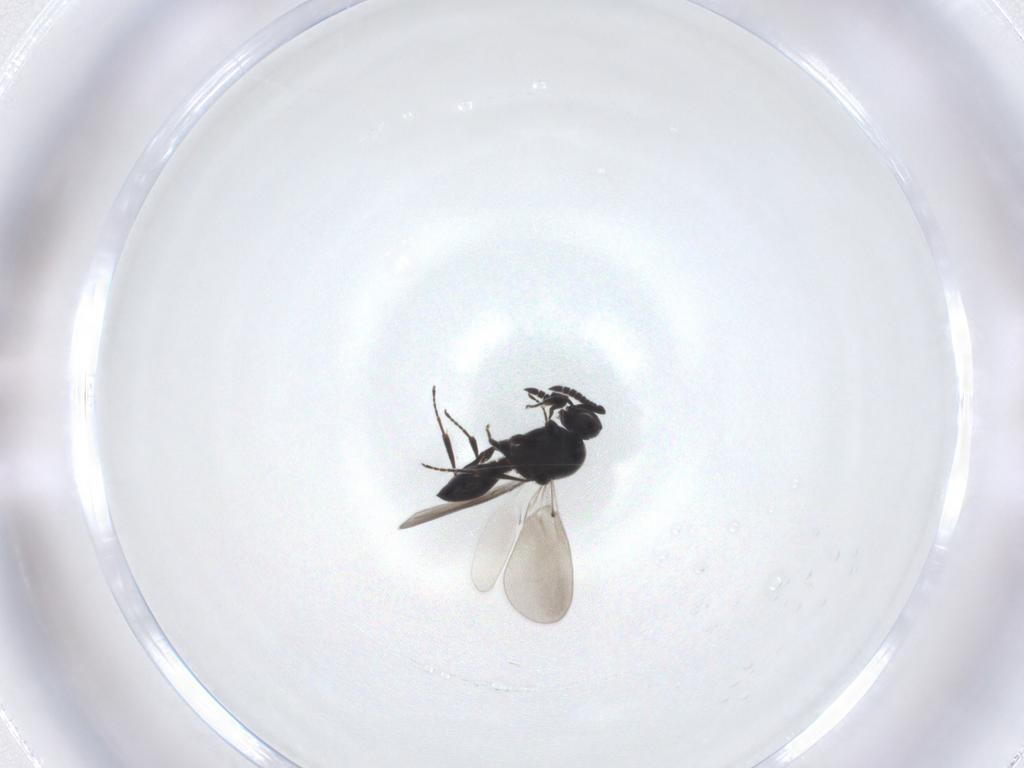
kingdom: Animalia
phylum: Arthropoda
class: Insecta
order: Hymenoptera
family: Platygastridae
